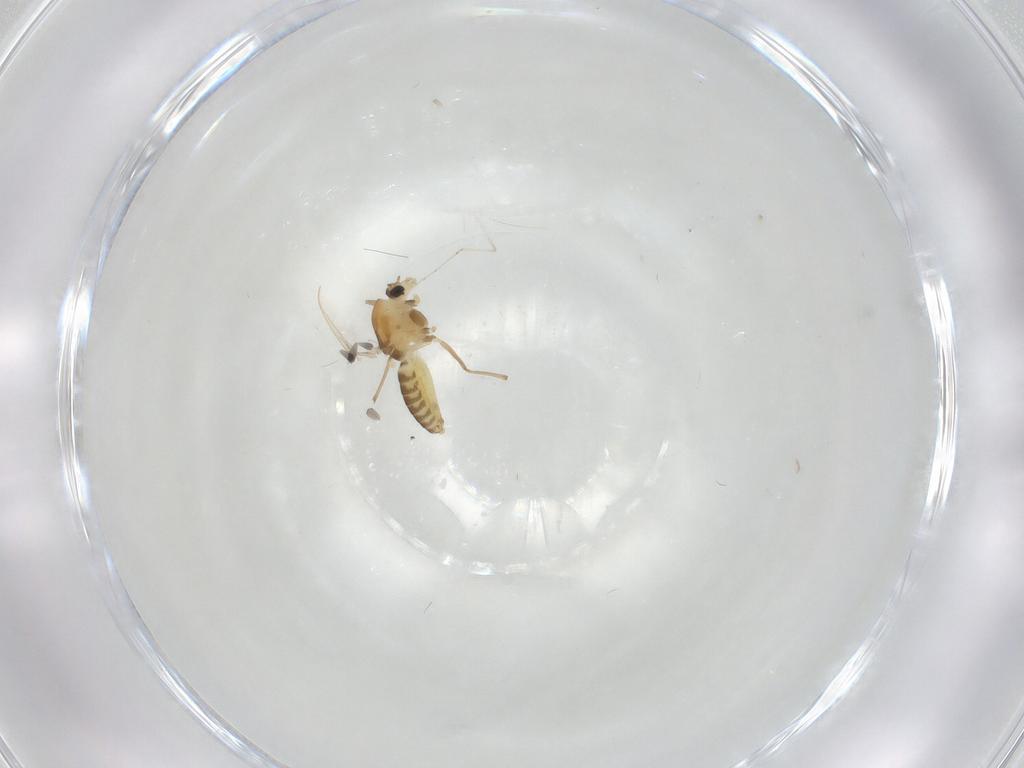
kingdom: Animalia
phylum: Arthropoda
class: Insecta
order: Diptera
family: Chironomidae
